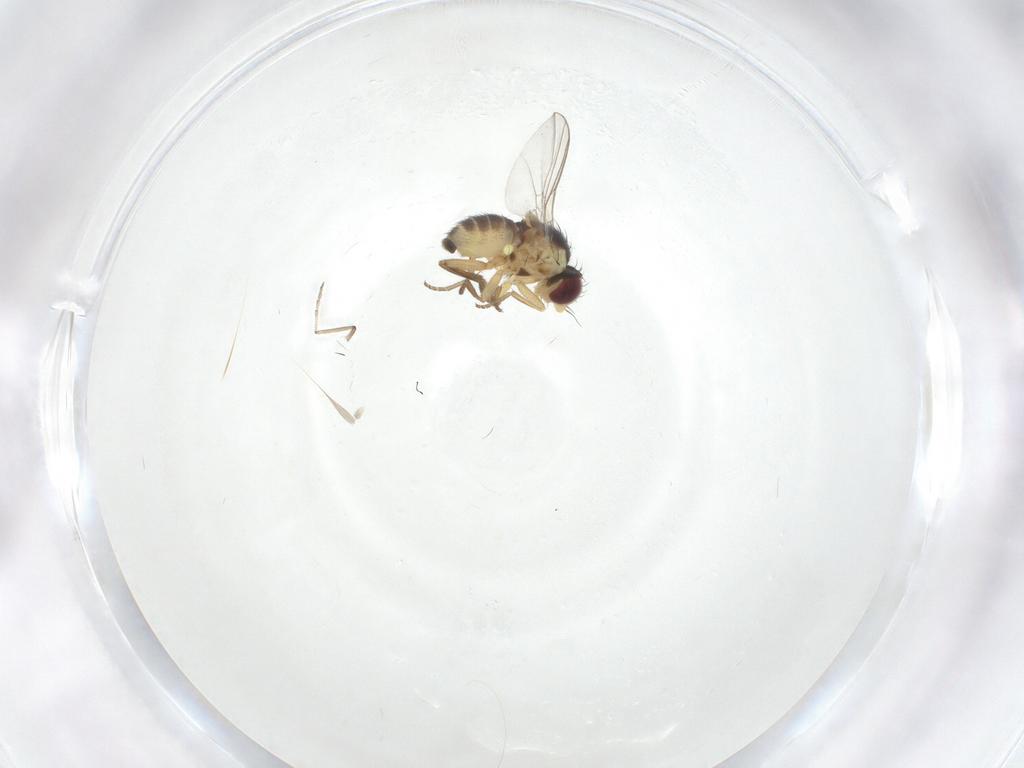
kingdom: Animalia
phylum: Arthropoda
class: Insecta
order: Diptera
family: Agromyzidae
